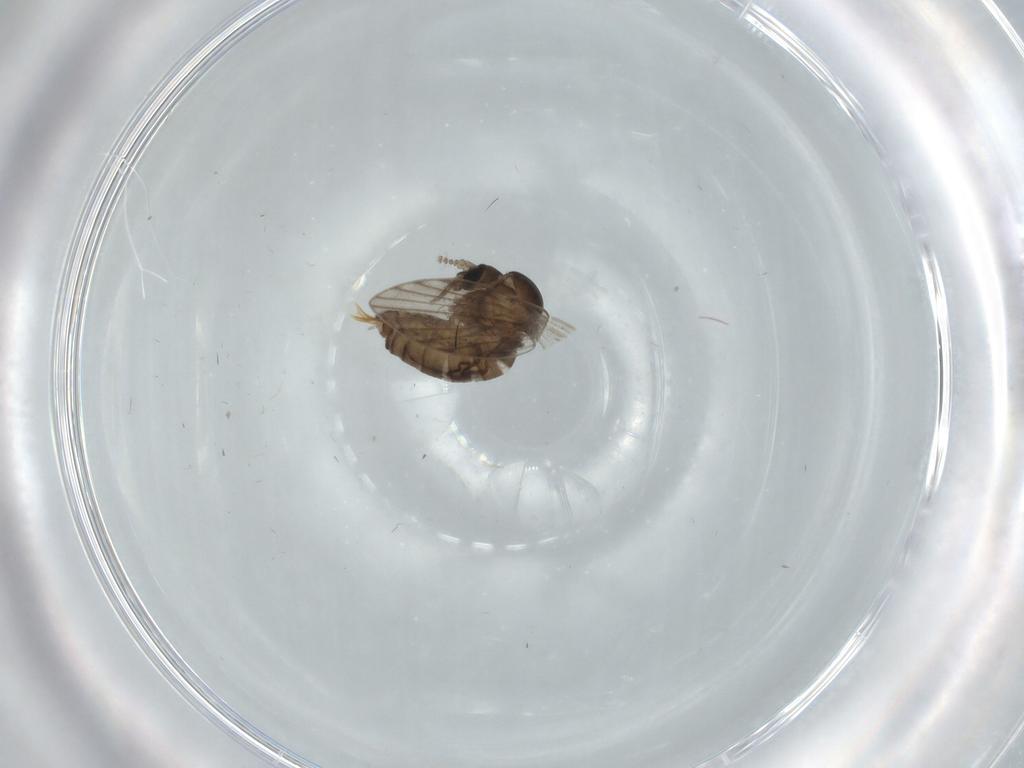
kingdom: Animalia
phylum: Arthropoda
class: Insecta
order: Diptera
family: Psychodidae
